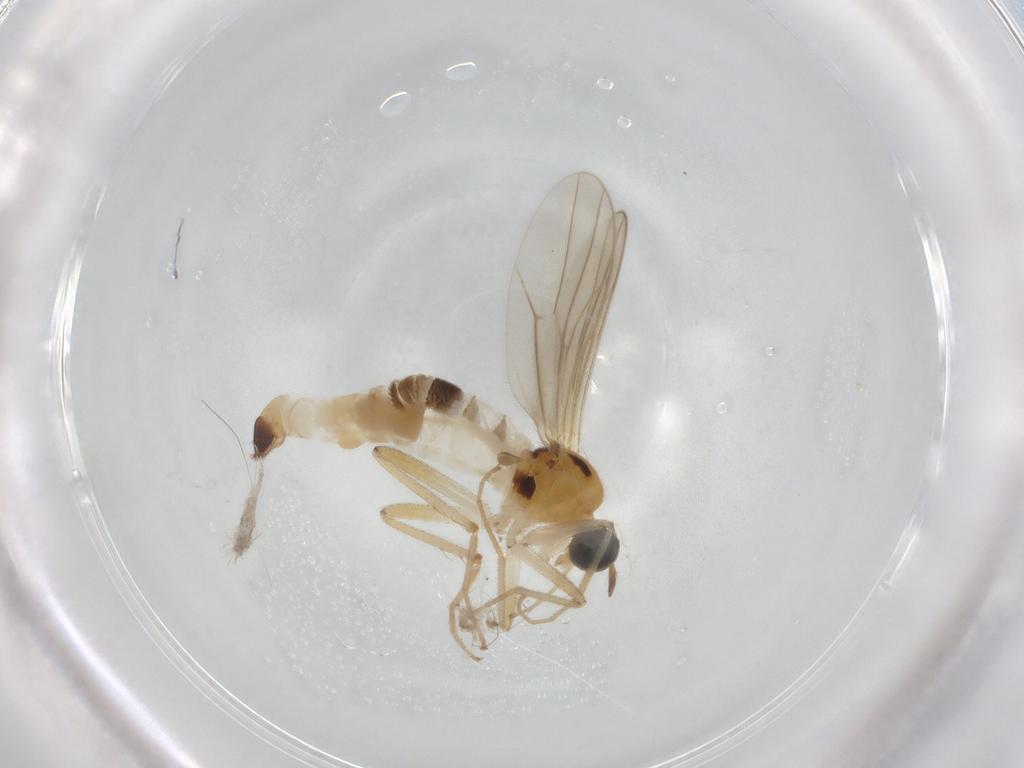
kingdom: Animalia
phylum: Arthropoda
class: Insecta
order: Diptera
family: Hybotidae
